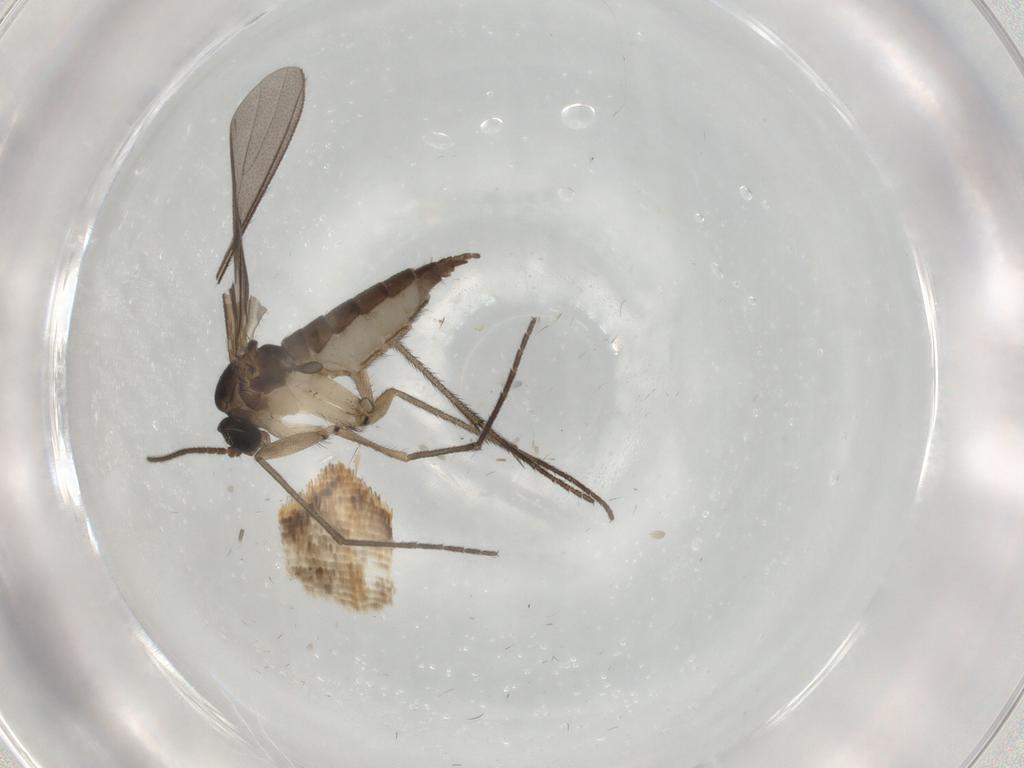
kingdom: Animalia
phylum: Arthropoda
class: Insecta
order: Diptera
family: Sciaridae
